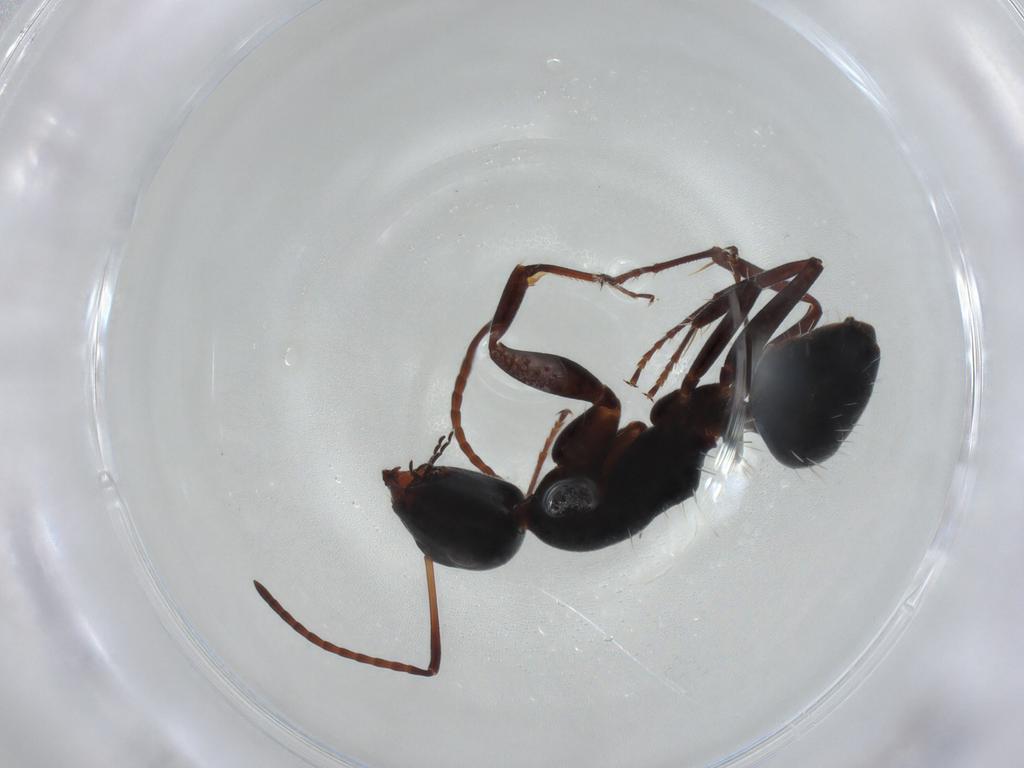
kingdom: Animalia
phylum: Arthropoda
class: Insecta
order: Hymenoptera
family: Formicidae
